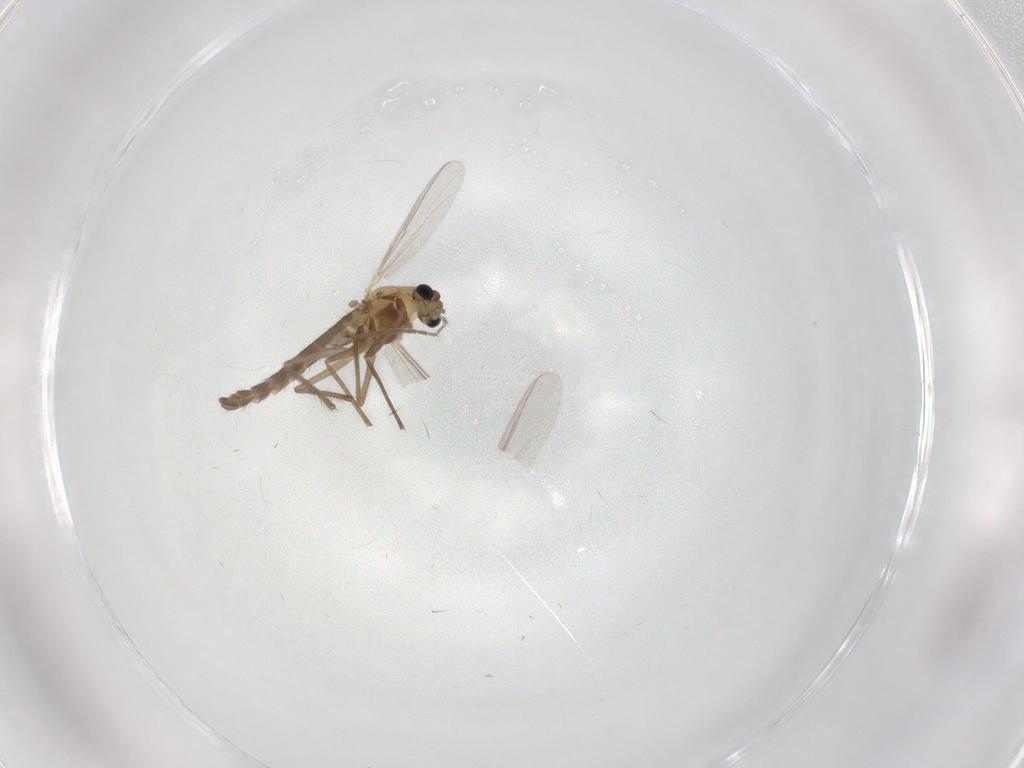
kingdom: Animalia
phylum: Arthropoda
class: Insecta
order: Diptera
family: Chironomidae
